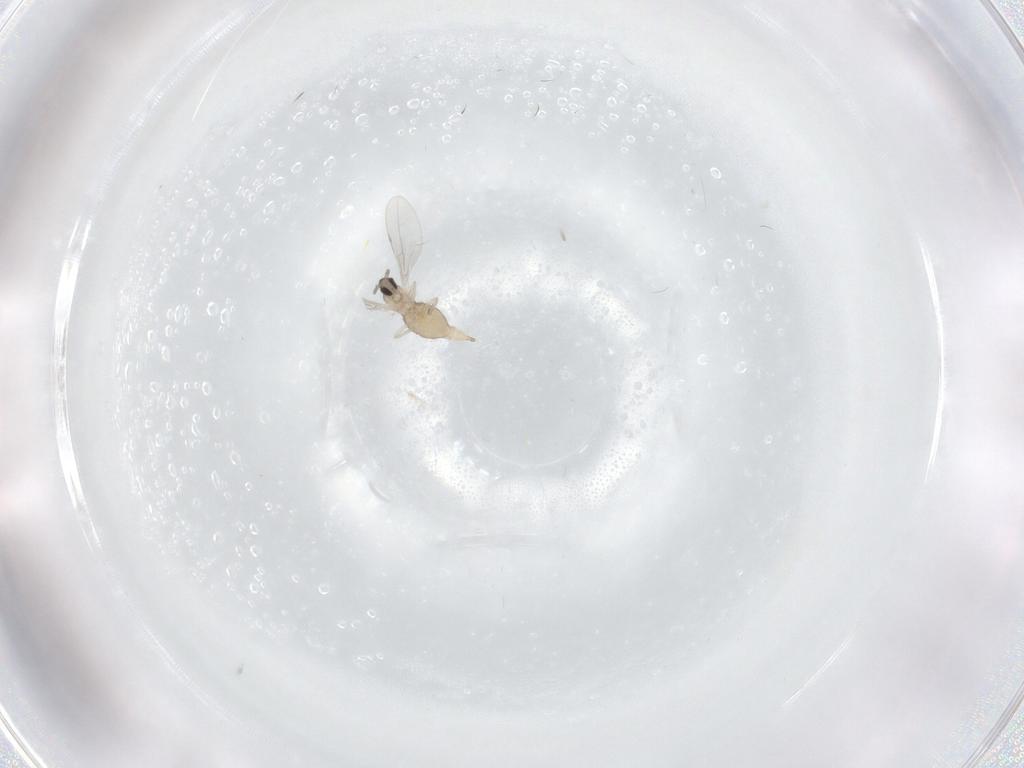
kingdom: Animalia
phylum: Arthropoda
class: Insecta
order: Diptera
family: Cecidomyiidae
